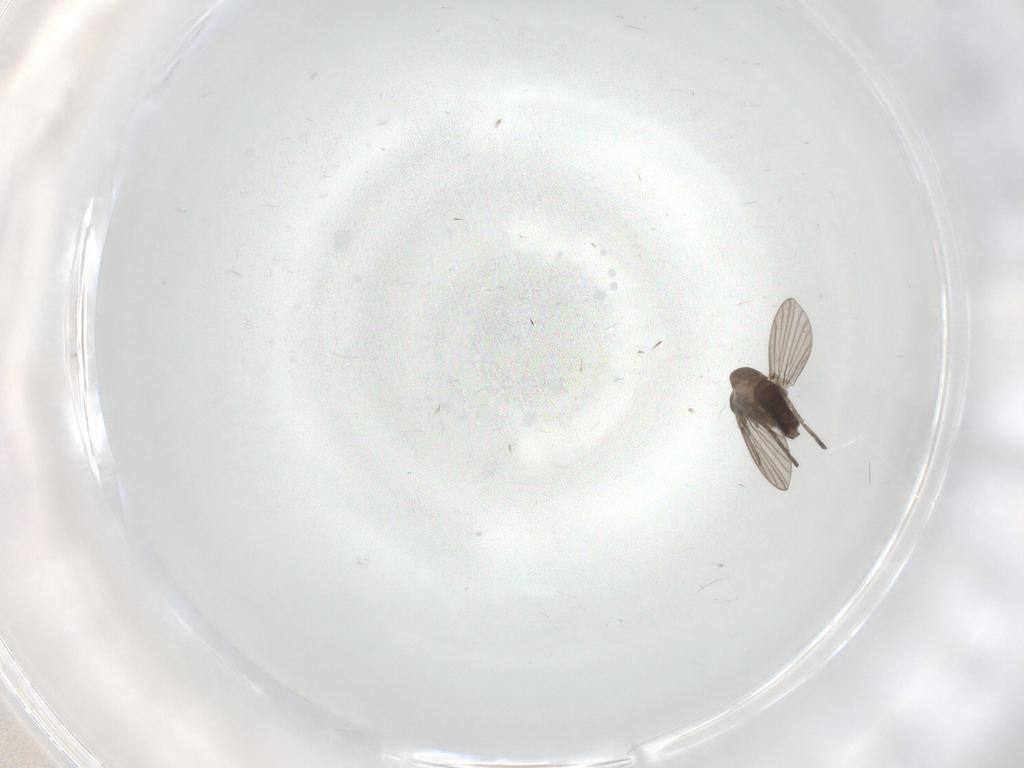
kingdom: Animalia
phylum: Arthropoda
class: Insecta
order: Diptera
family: Cecidomyiidae
